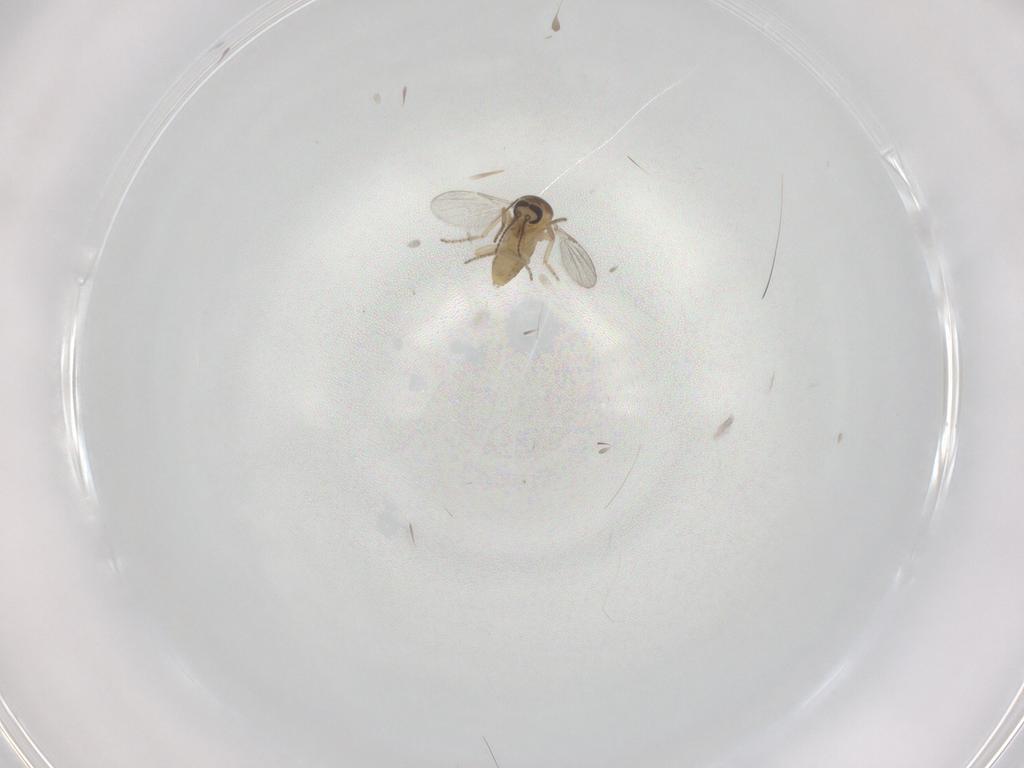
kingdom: Animalia
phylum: Arthropoda
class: Insecta
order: Diptera
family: Ceratopogonidae
